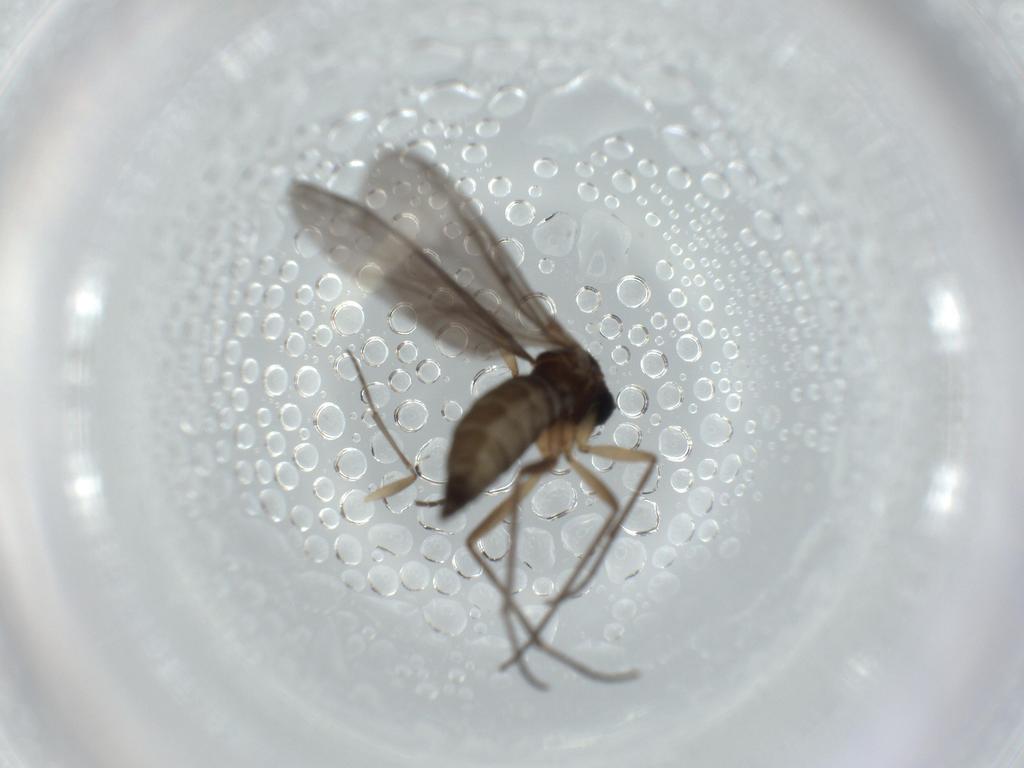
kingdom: Animalia
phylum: Arthropoda
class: Insecta
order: Diptera
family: Sciaridae
